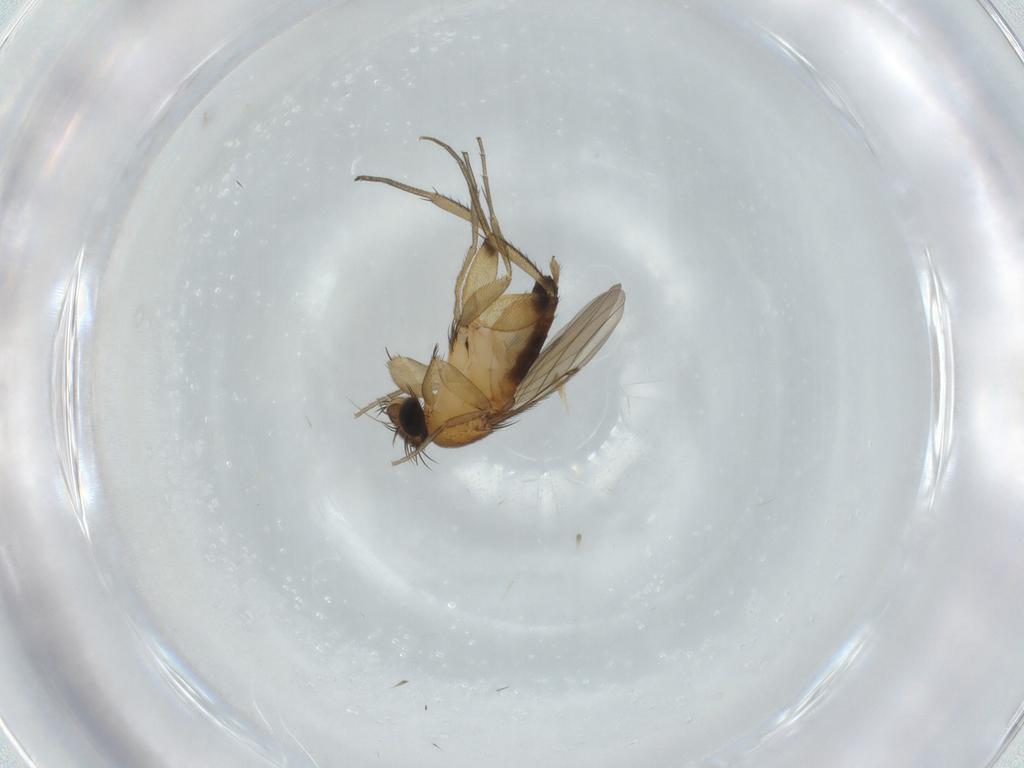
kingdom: Animalia
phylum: Arthropoda
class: Insecta
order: Diptera
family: Phoridae
